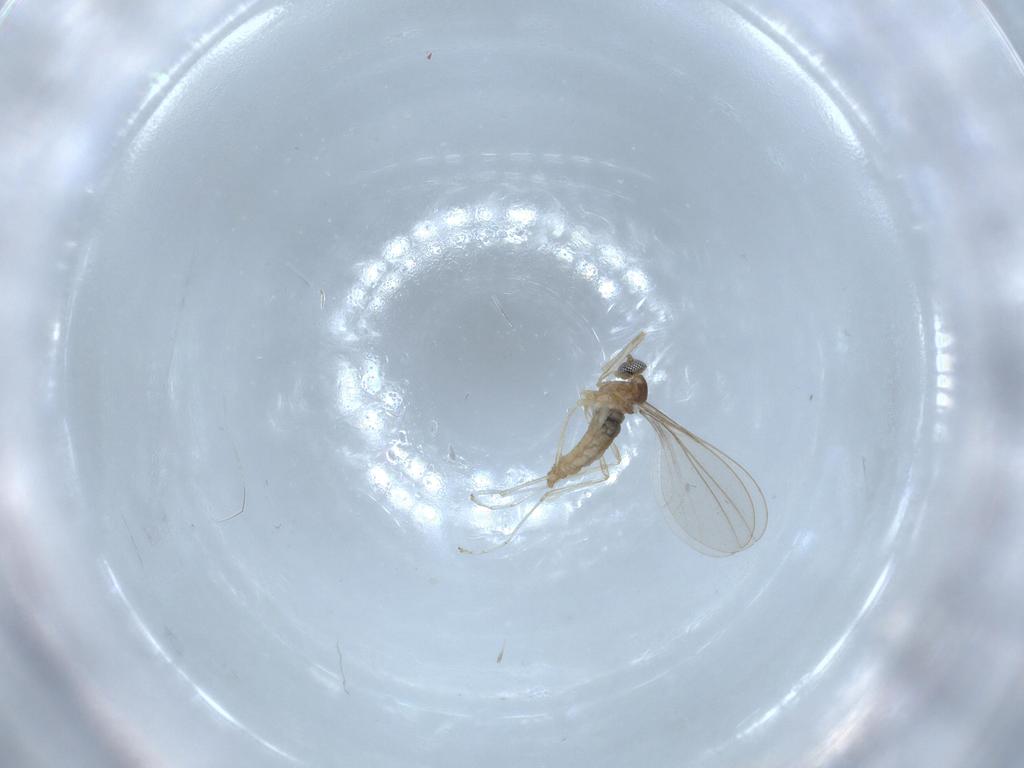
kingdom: Animalia
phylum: Arthropoda
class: Insecta
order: Diptera
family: Cecidomyiidae
